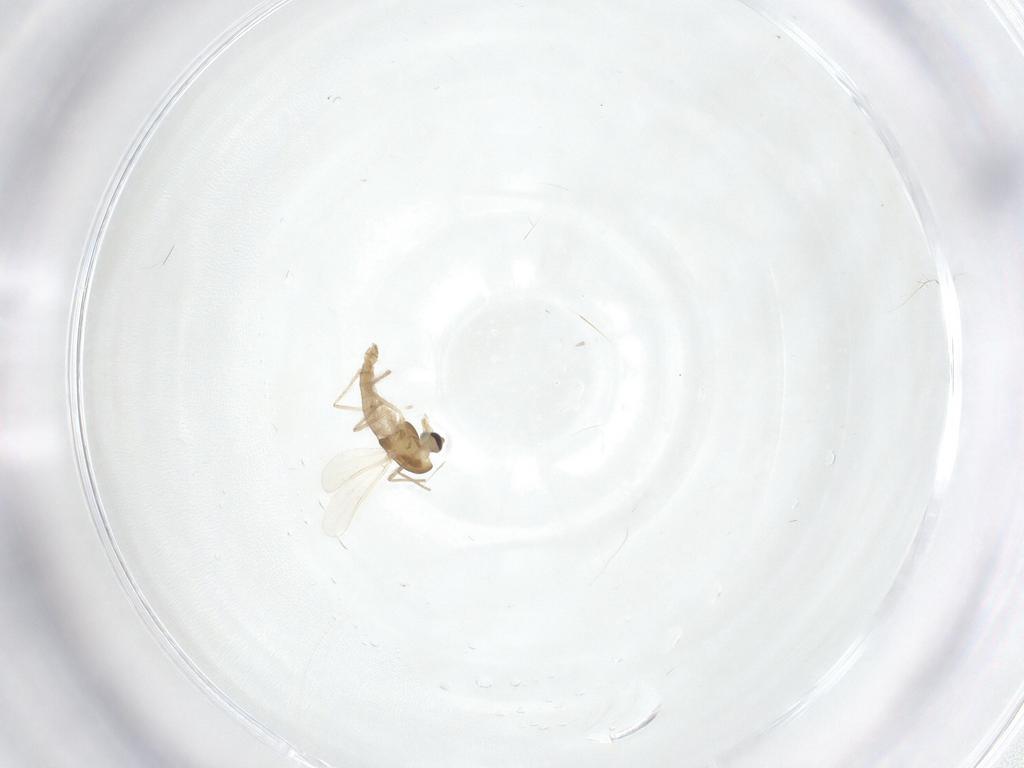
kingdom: Animalia
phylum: Arthropoda
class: Insecta
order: Diptera
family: Chironomidae
